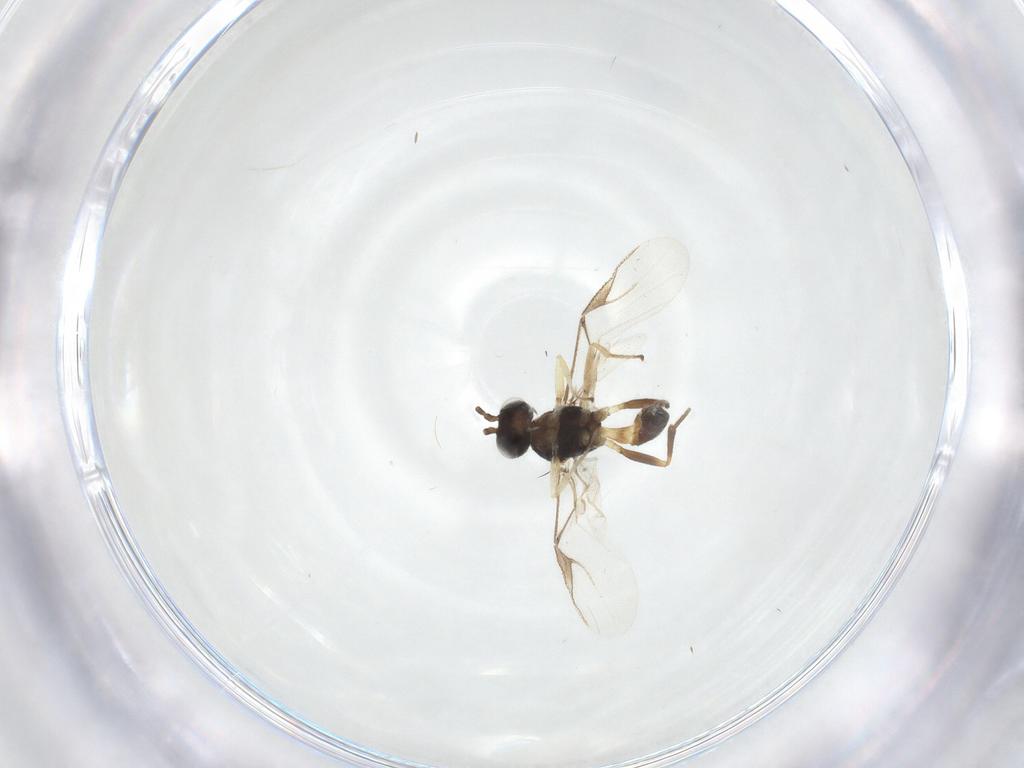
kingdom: Animalia
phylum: Arthropoda
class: Insecta
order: Hymenoptera
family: Braconidae
